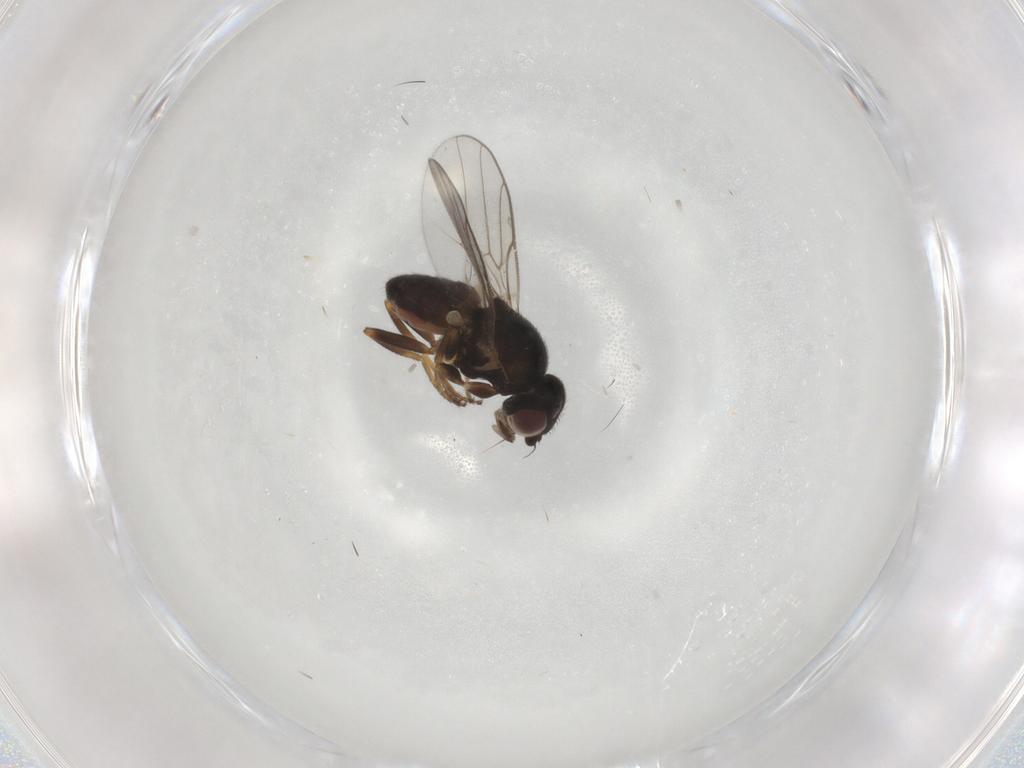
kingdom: Animalia
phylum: Arthropoda
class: Insecta
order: Diptera
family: Chloropidae
